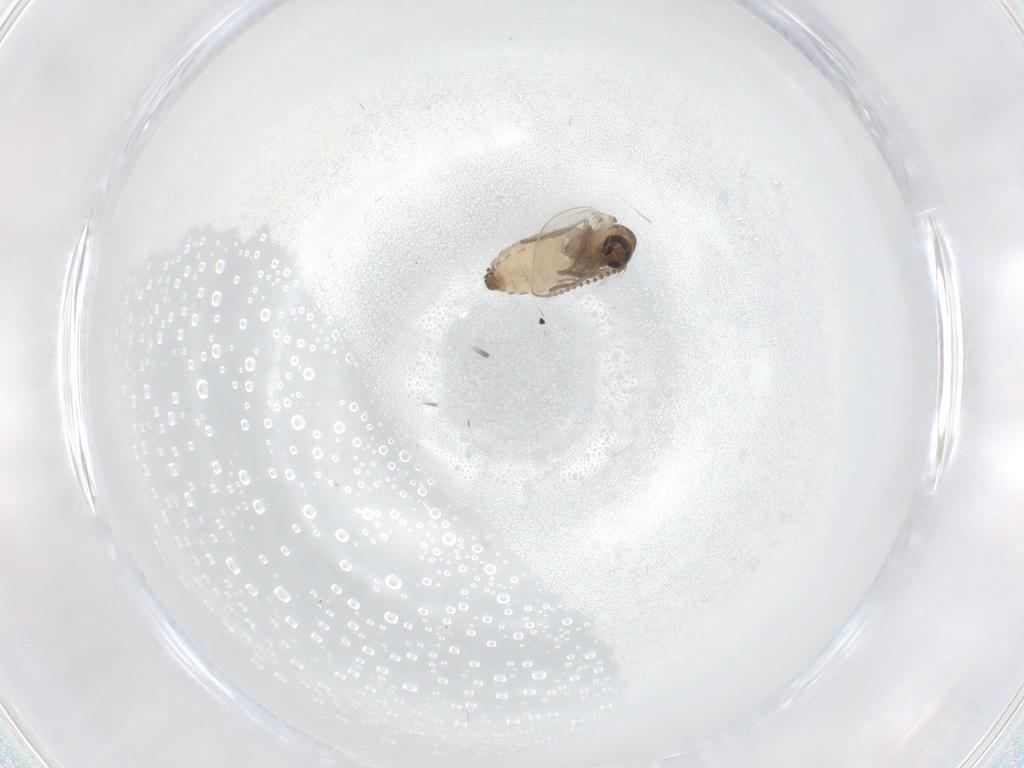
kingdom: Animalia
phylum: Arthropoda
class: Insecta
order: Diptera
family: Psychodidae
